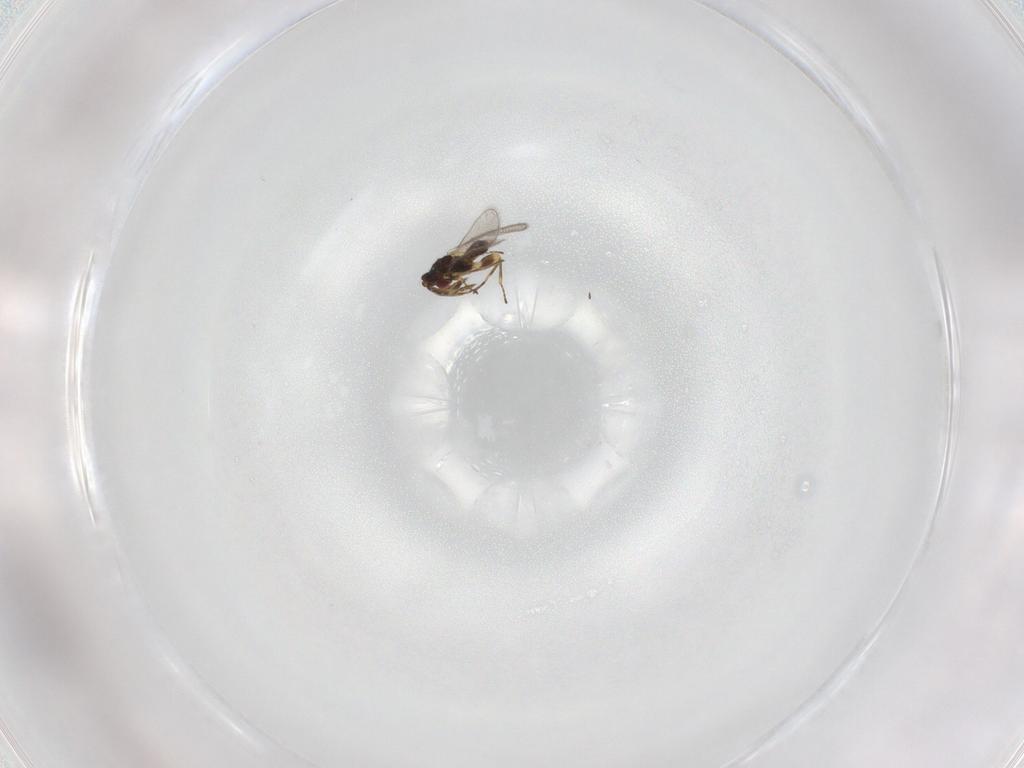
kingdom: Animalia
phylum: Arthropoda
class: Insecta
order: Hymenoptera
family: Eulophidae
